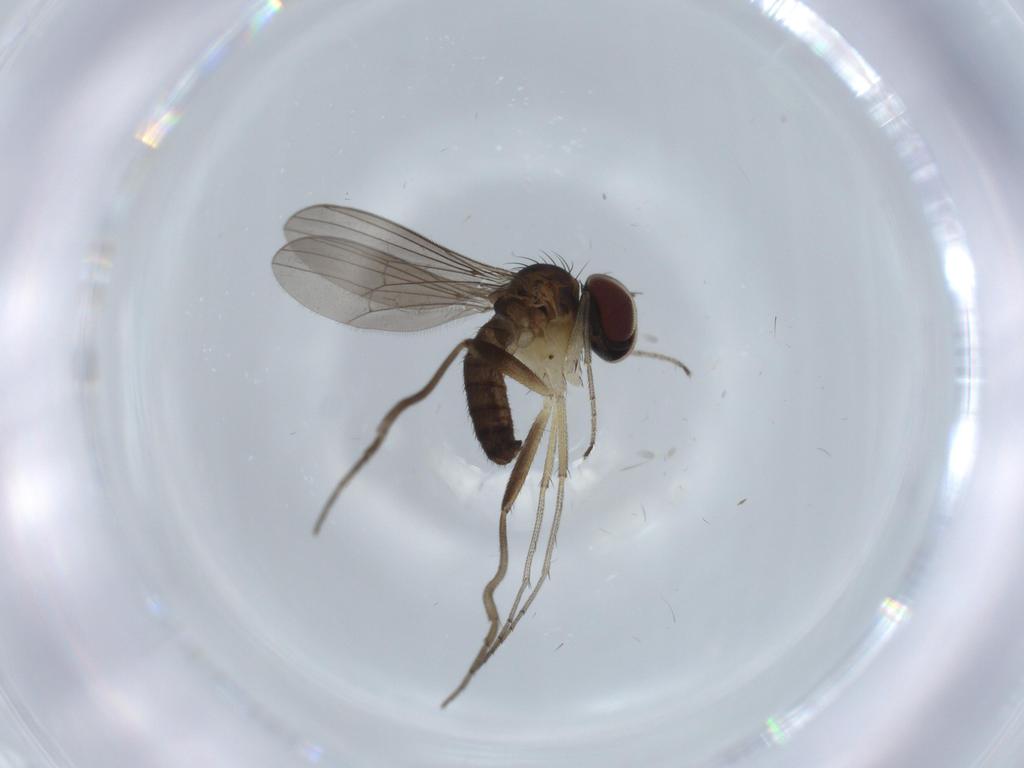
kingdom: Animalia
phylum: Arthropoda
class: Insecta
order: Diptera
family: Dolichopodidae
